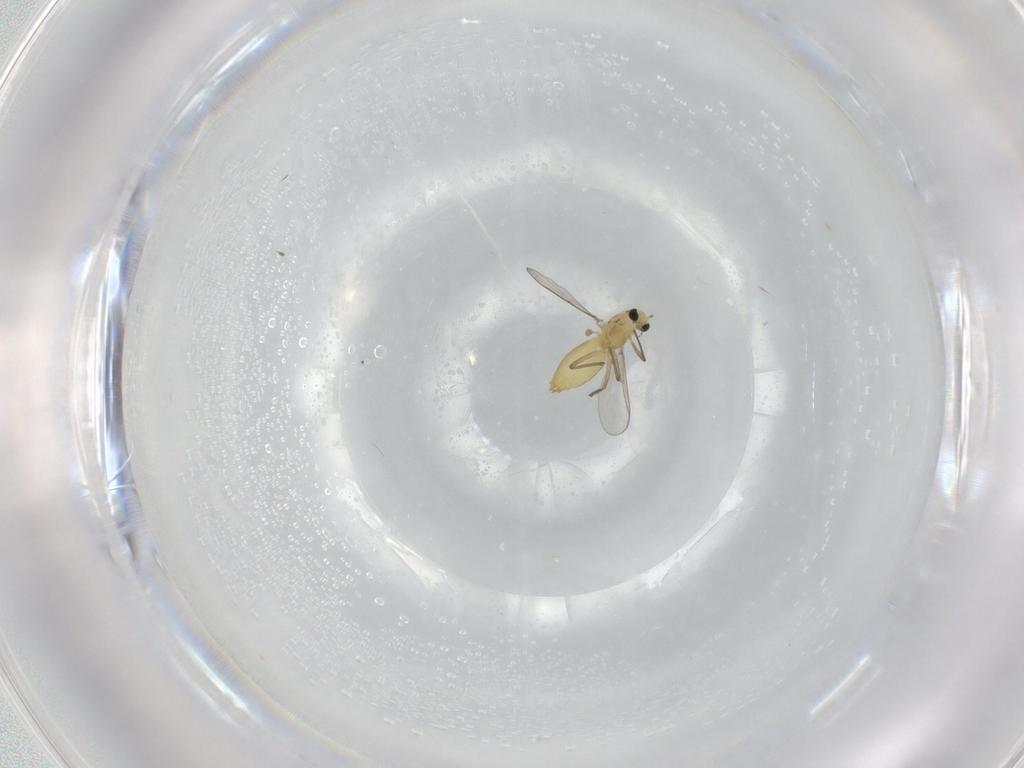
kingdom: Animalia
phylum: Arthropoda
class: Insecta
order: Diptera
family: Chironomidae
